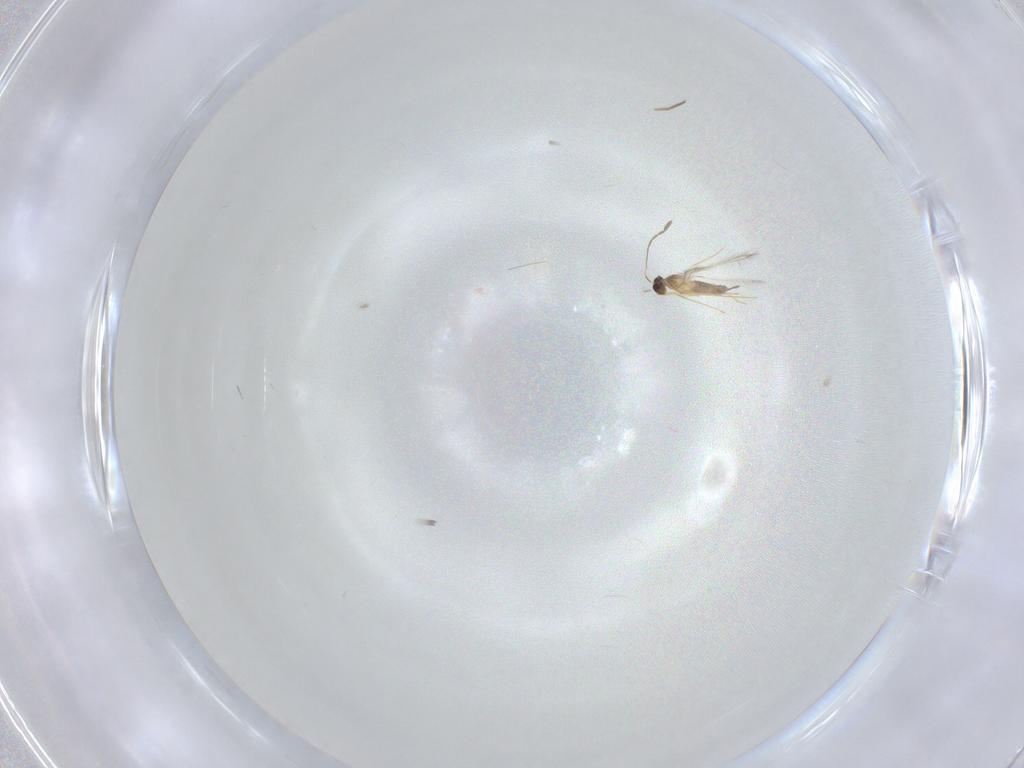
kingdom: Animalia
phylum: Arthropoda
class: Insecta
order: Hymenoptera
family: Mymaridae
